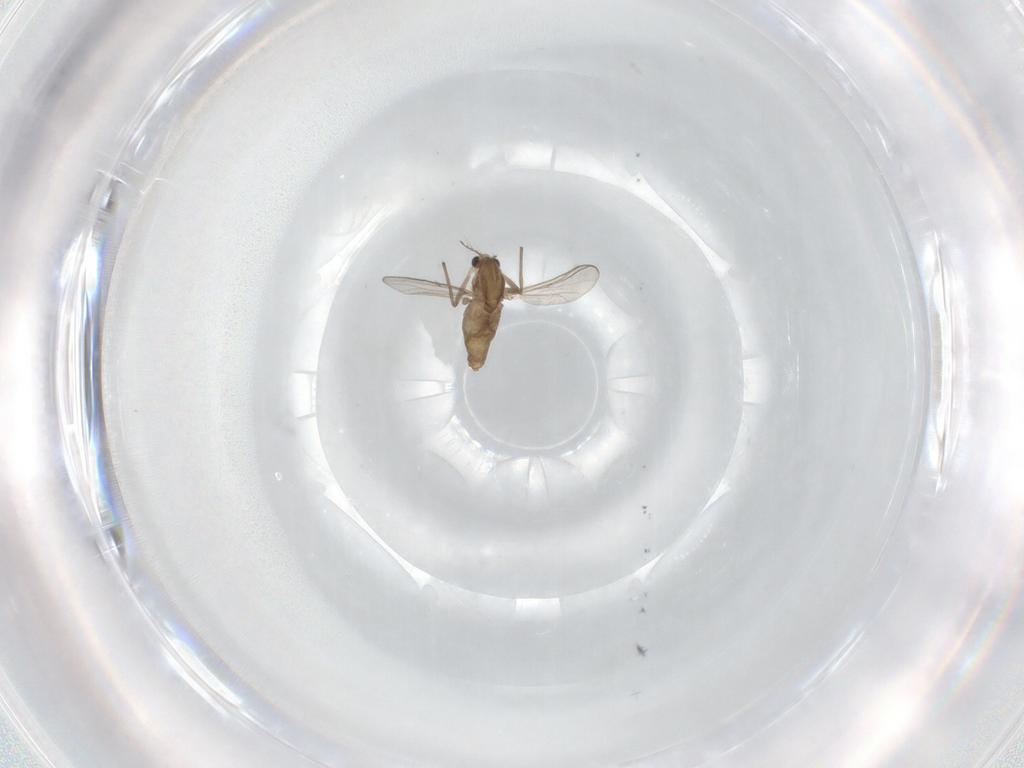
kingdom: Animalia
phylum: Arthropoda
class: Insecta
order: Diptera
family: Chironomidae
